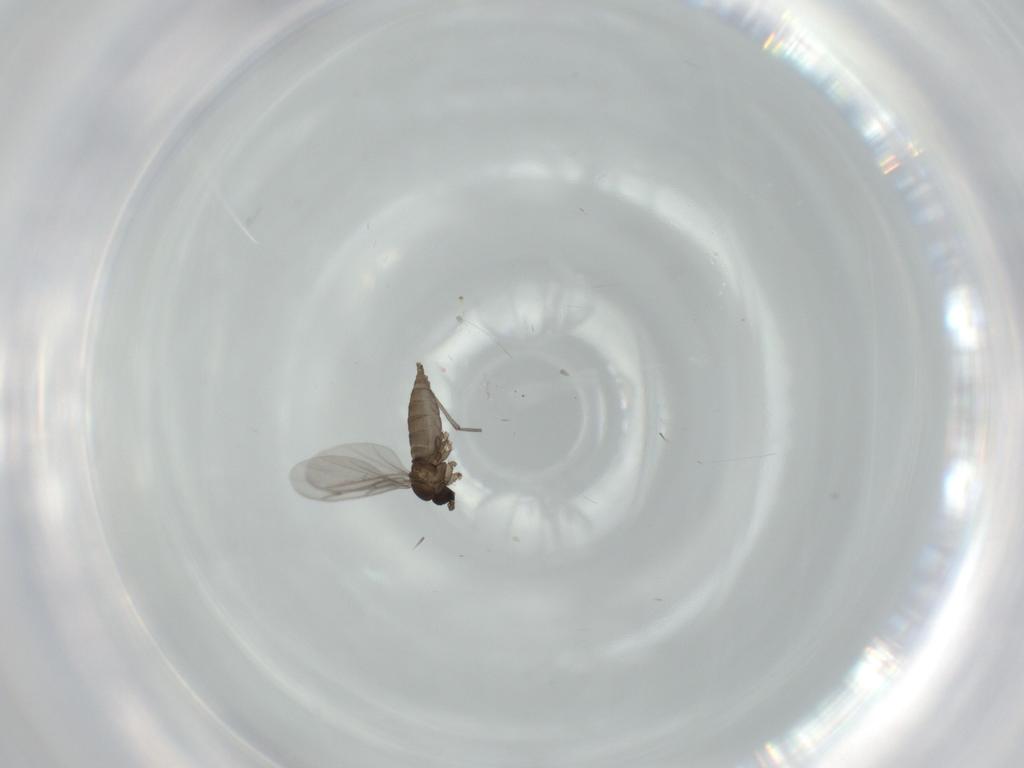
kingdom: Animalia
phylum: Arthropoda
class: Insecta
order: Diptera
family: Sciaridae
